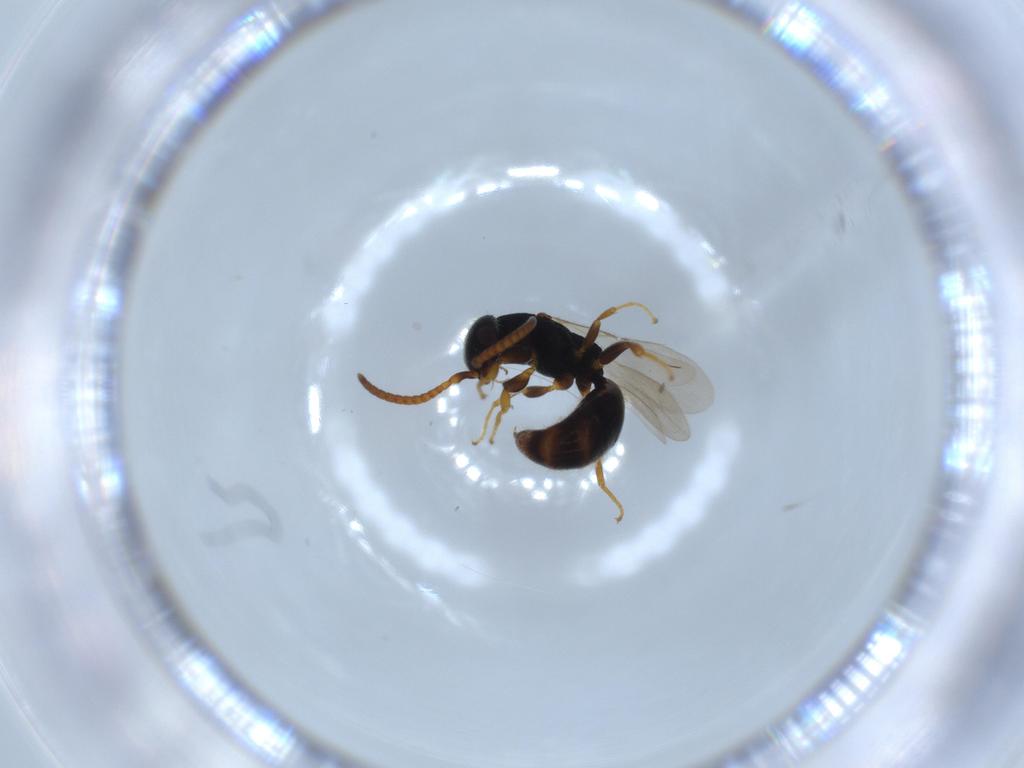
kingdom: Animalia
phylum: Arthropoda
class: Insecta
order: Hymenoptera
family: Bethylidae
